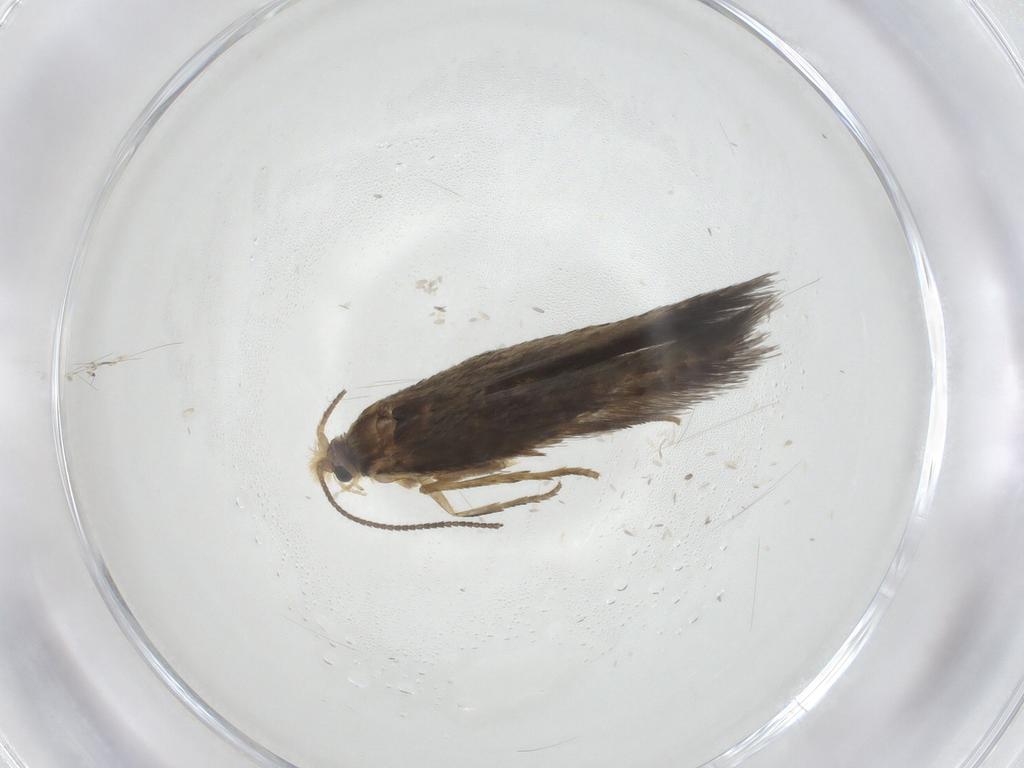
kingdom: Animalia
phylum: Arthropoda
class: Insecta
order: Lepidoptera
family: Nepticulidae
